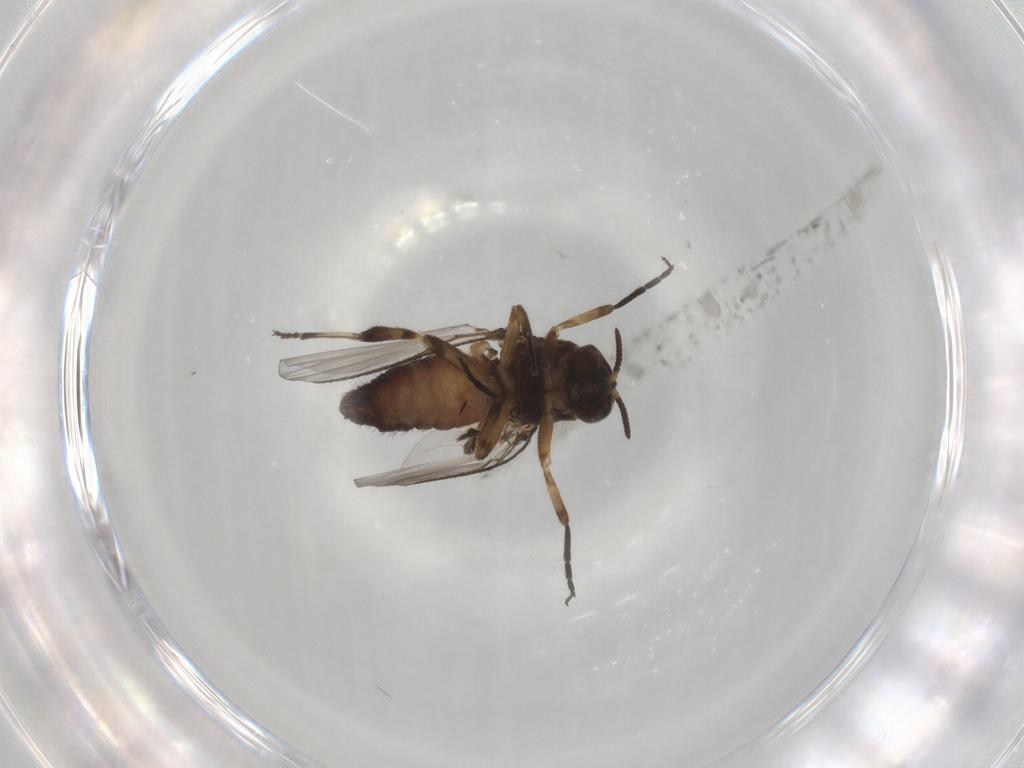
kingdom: Animalia
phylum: Arthropoda
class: Insecta
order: Diptera
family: Simuliidae
